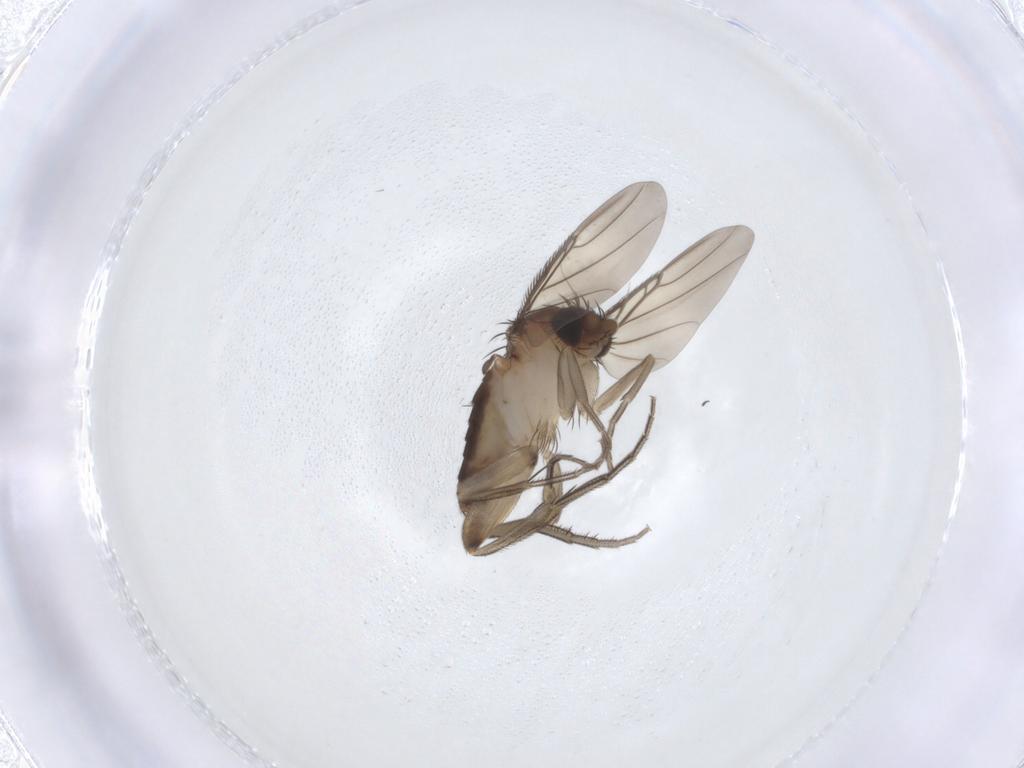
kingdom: Animalia
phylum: Arthropoda
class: Insecta
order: Diptera
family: Phoridae
